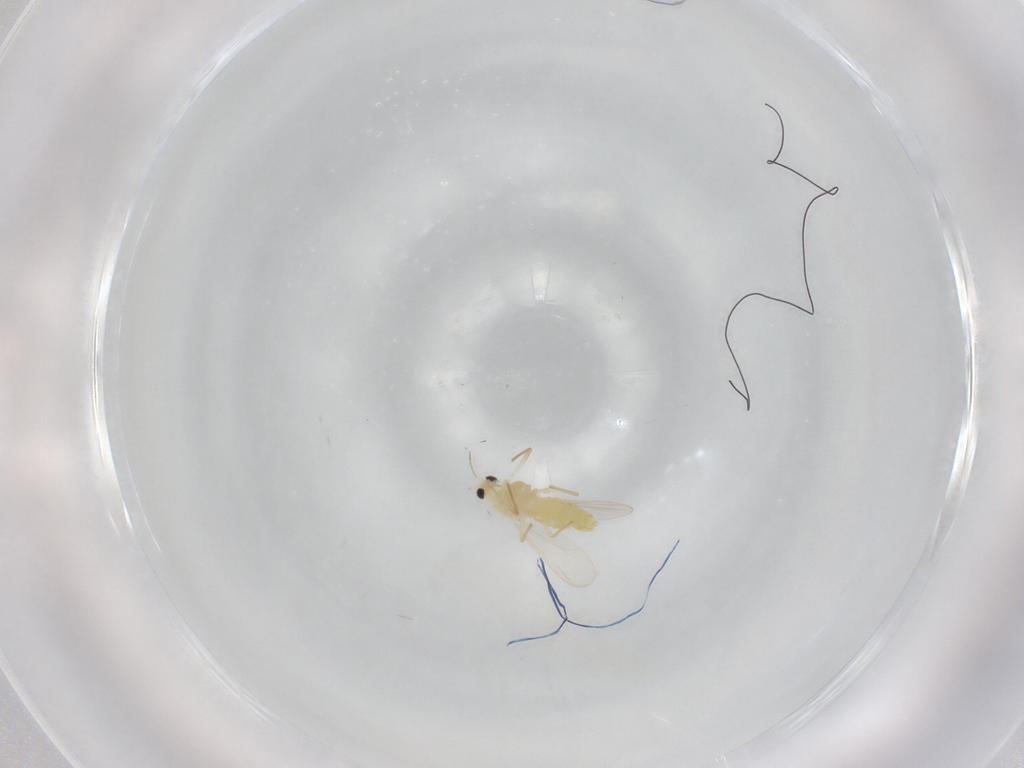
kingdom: Animalia
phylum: Arthropoda
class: Insecta
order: Diptera
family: Chironomidae
